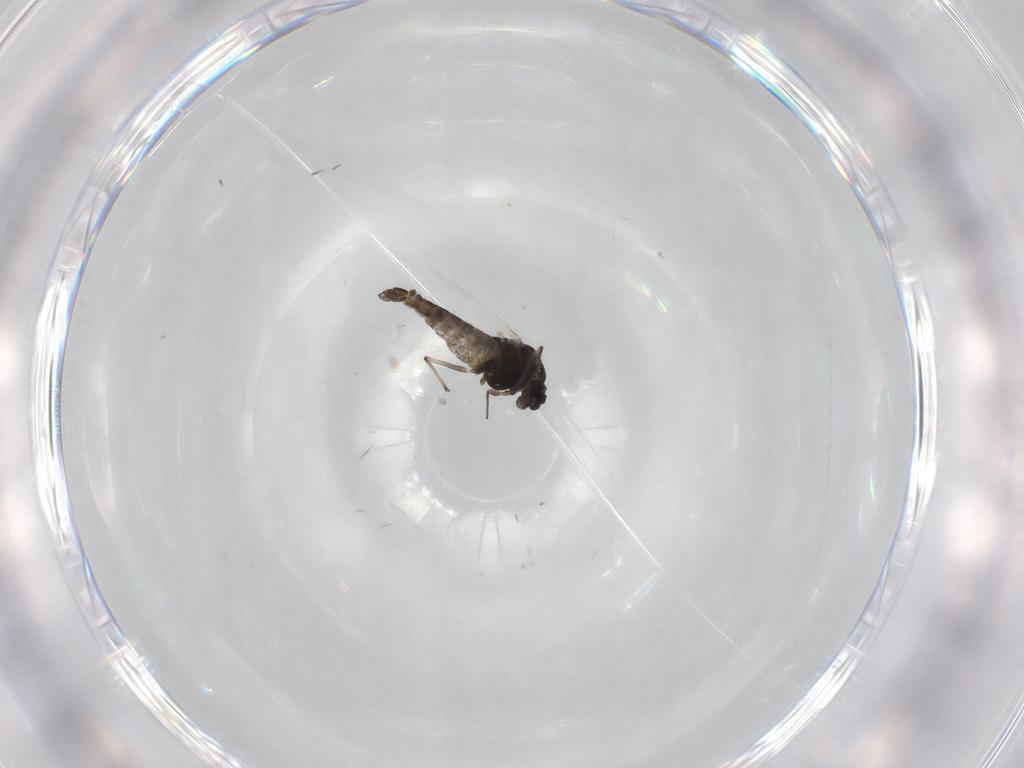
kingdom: Animalia
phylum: Arthropoda
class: Insecta
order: Diptera
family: Chironomidae
